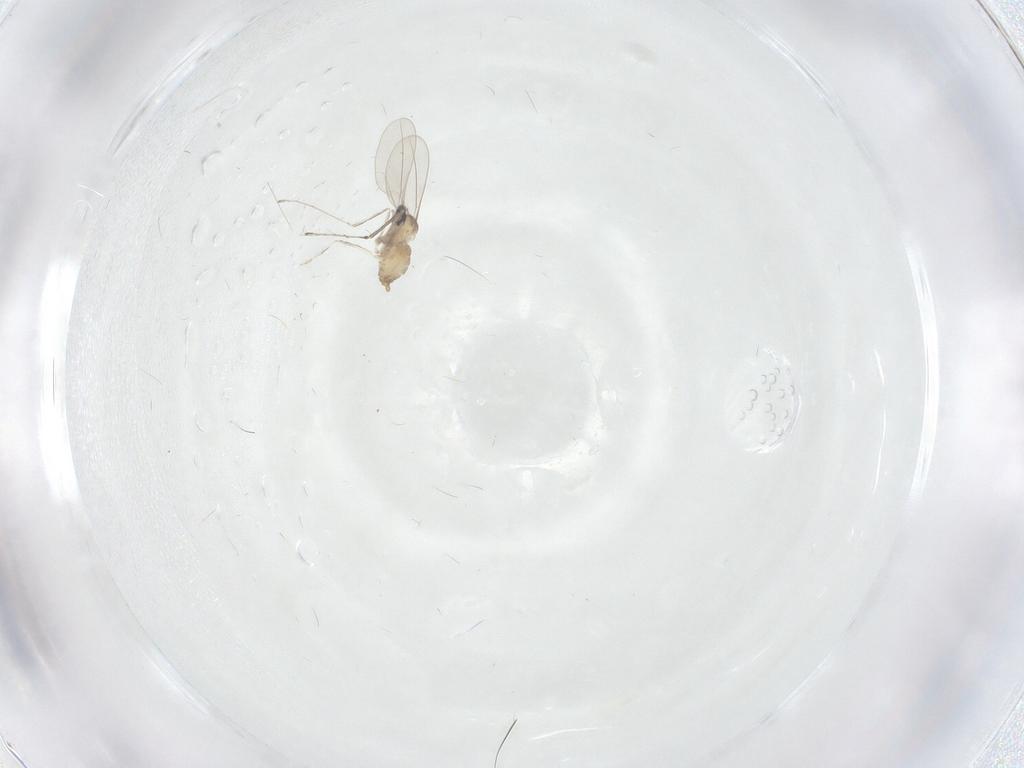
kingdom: Animalia
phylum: Arthropoda
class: Insecta
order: Diptera
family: Cecidomyiidae
